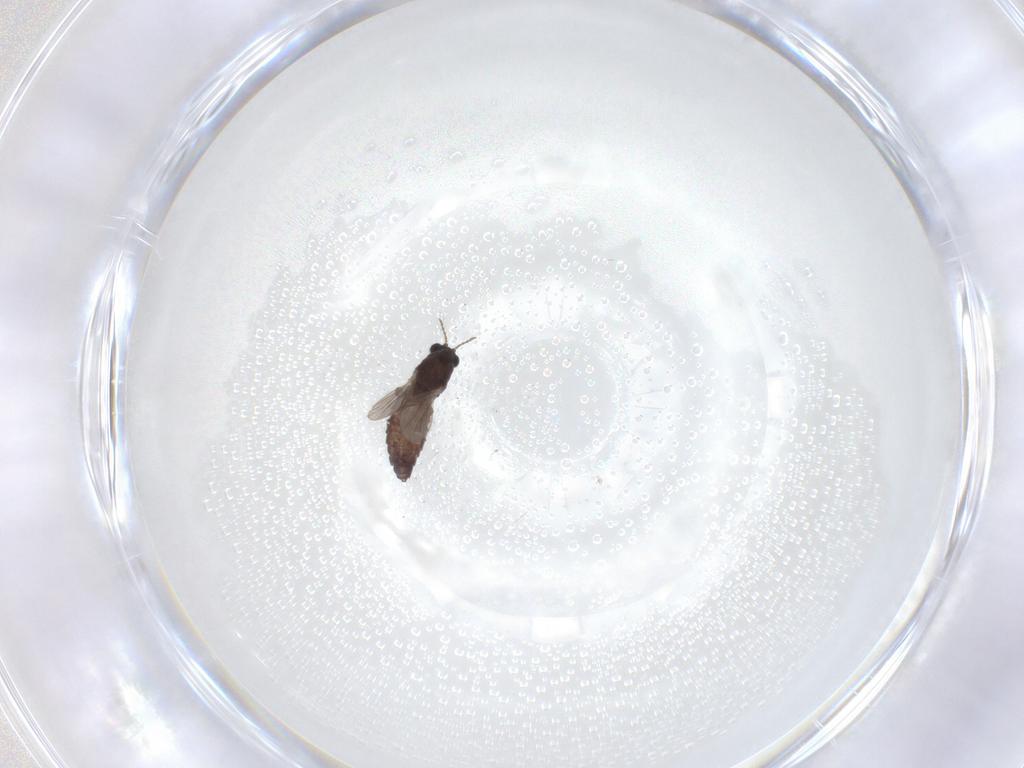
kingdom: Animalia
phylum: Arthropoda
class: Insecta
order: Diptera
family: Chironomidae
